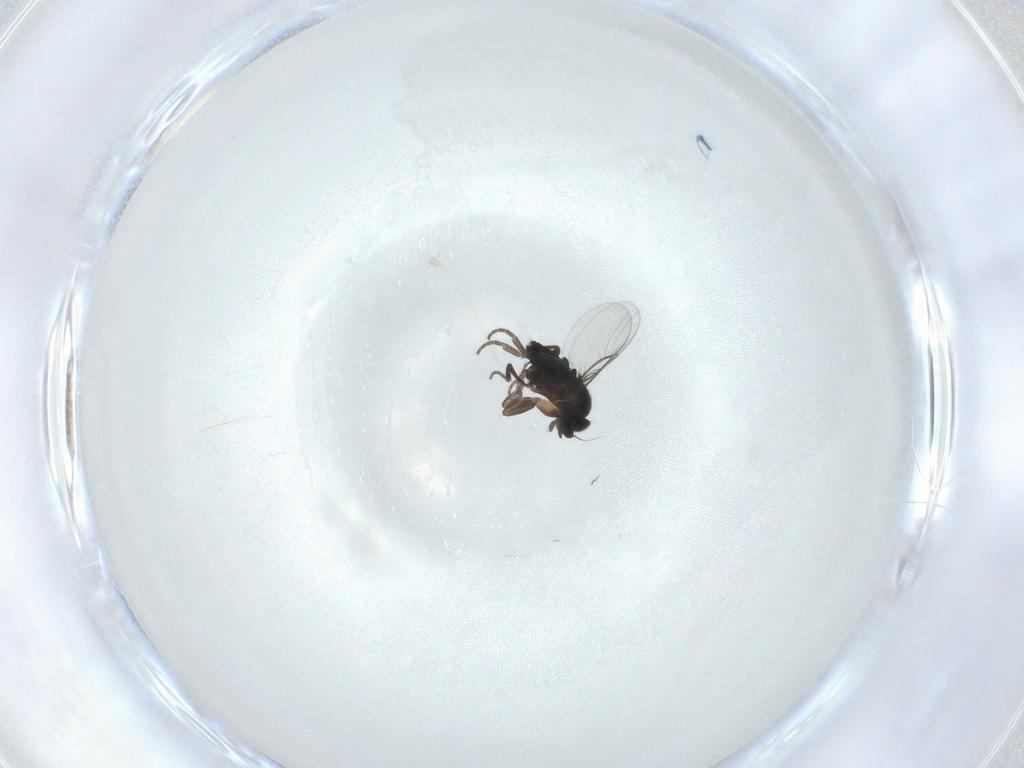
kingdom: Animalia
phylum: Arthropoda
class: Insecta
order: Diptera
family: Phoridae
